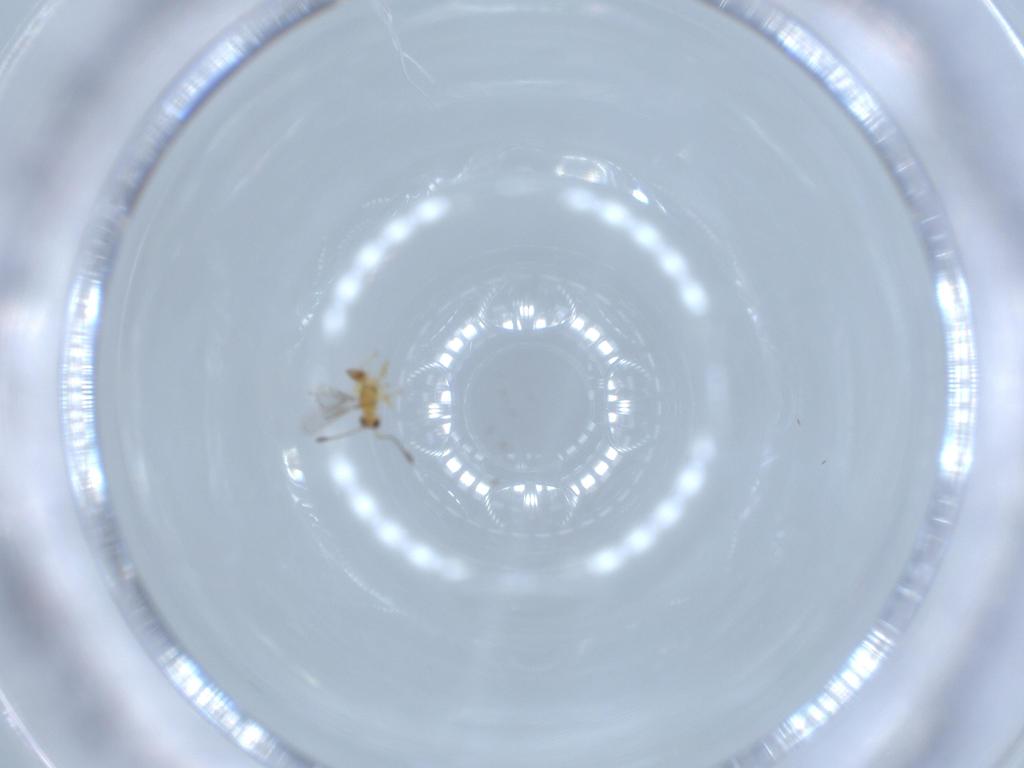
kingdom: Animalia
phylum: Arthropoda
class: Insecta
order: Hymenoptera
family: Mymaridae
